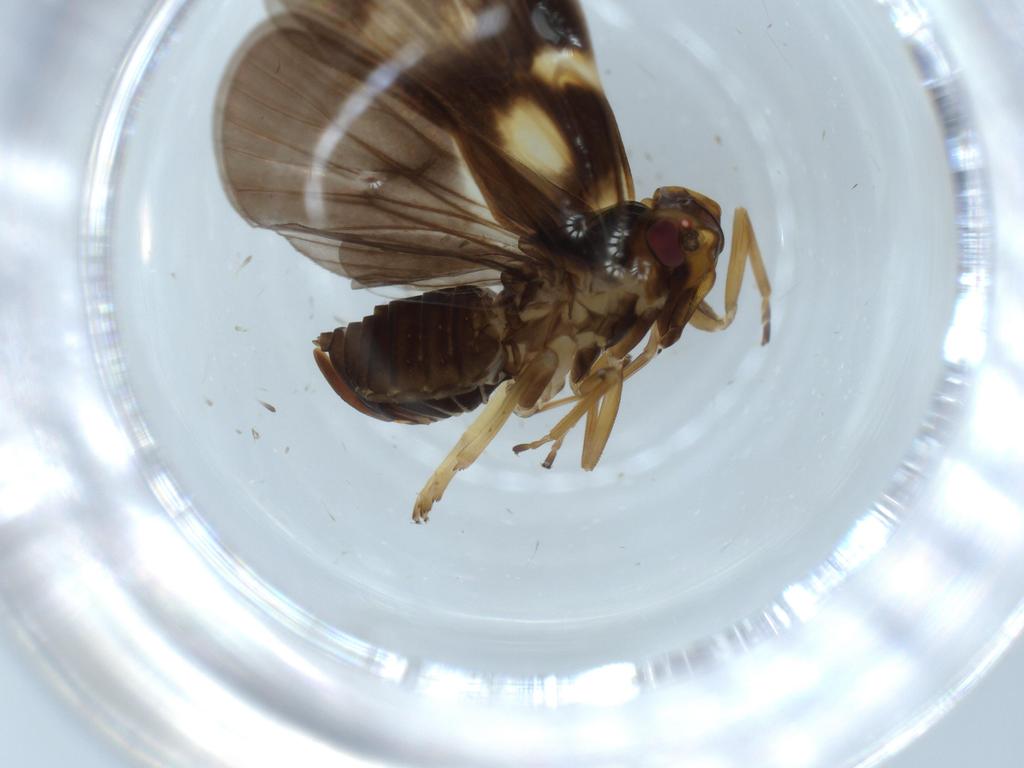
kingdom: Animalia
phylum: Arthropoda
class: Insecta
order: Hemiptera
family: Cixiidae
